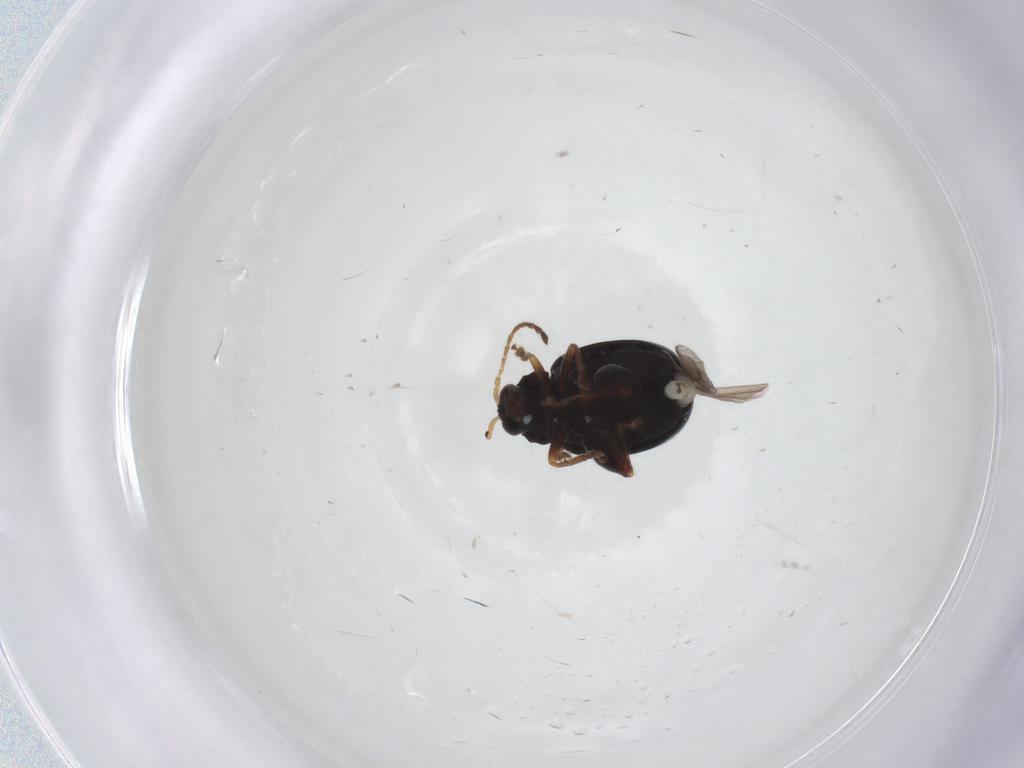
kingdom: Animalia
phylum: Arthropoda
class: Insecta
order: Coleoptera
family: Chrysomelidae
